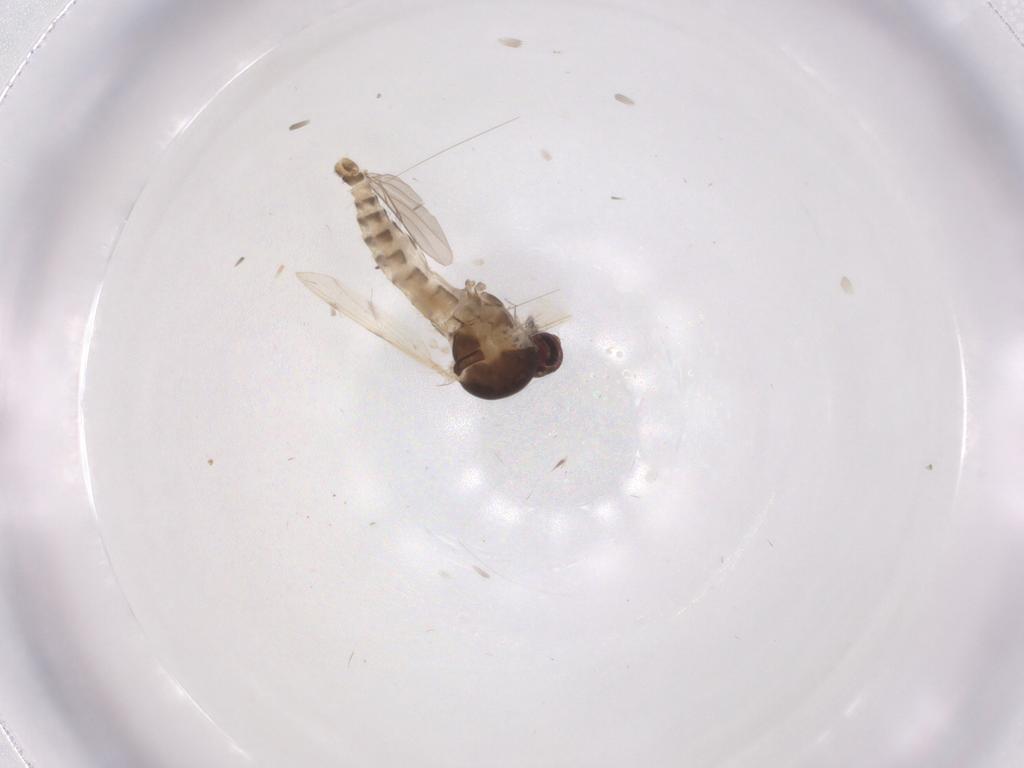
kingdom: Animalia
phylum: Arthropoda
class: Insecta
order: Diptera
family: Ceratopogonidae
